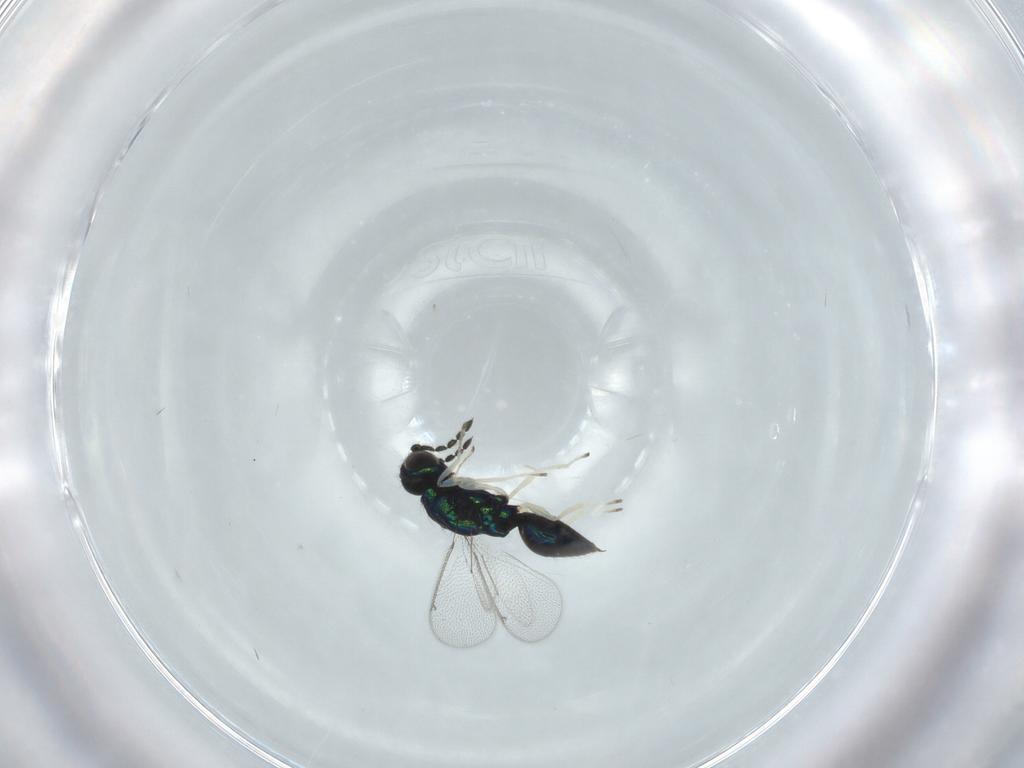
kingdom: Animalia
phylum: Arthropoda
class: Insecta
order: Hymenoptera
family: Eulophidae
